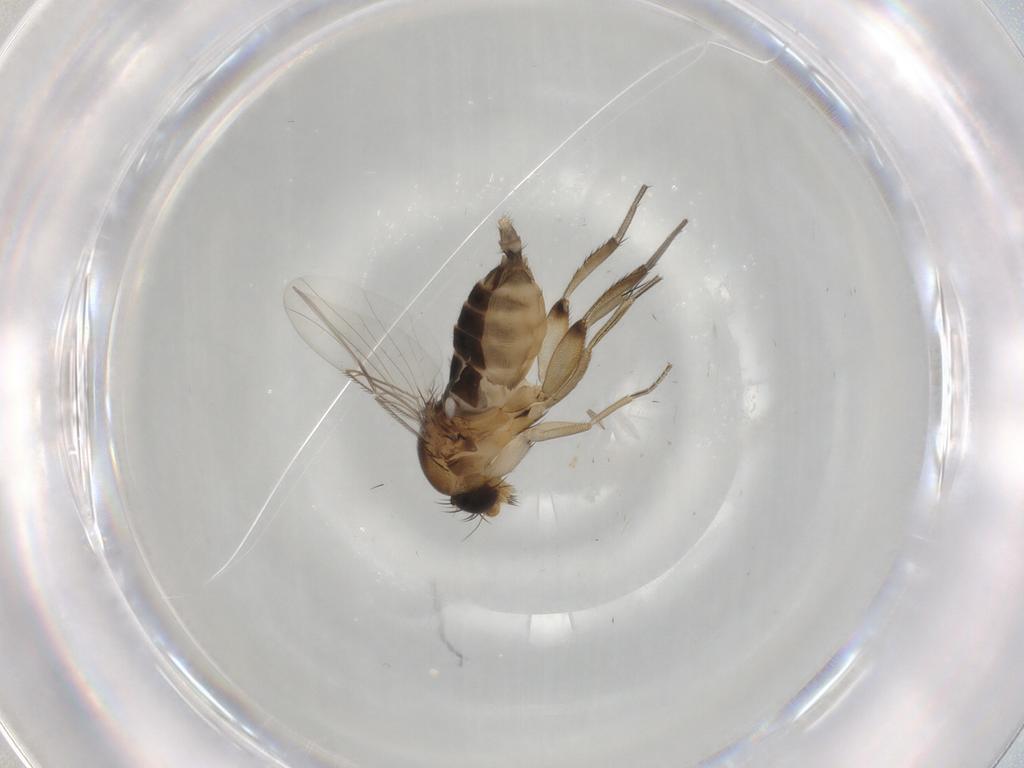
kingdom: Animalia
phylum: Arthropoda
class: Insecta
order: Diptera
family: Phoridae
